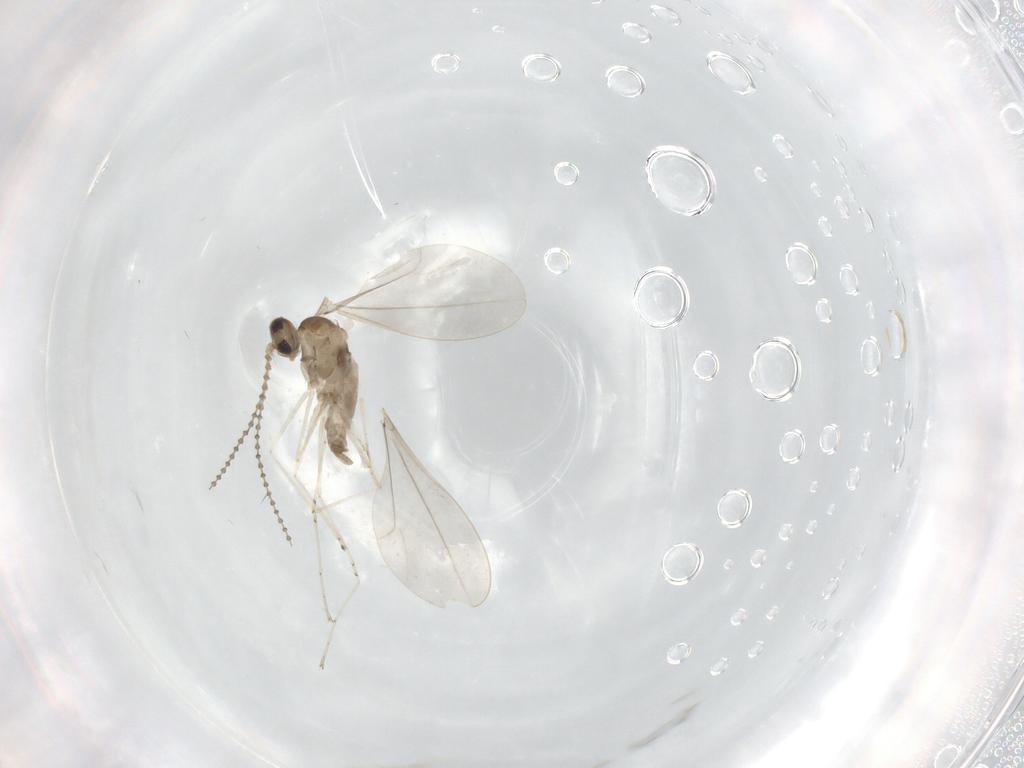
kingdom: Animalia
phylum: Arthropoda
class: Insecta
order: Diptera
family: Cecidomyiidae
